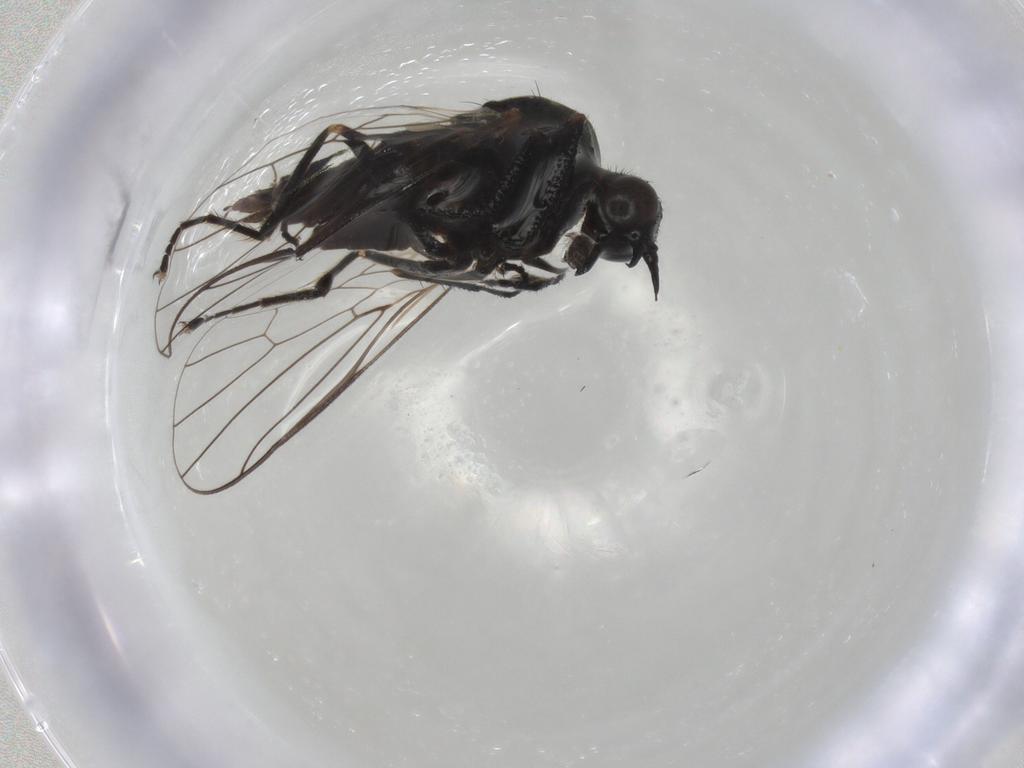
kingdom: Animalia
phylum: Arthropoda
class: Insecta
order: Diptera
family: Empididae
